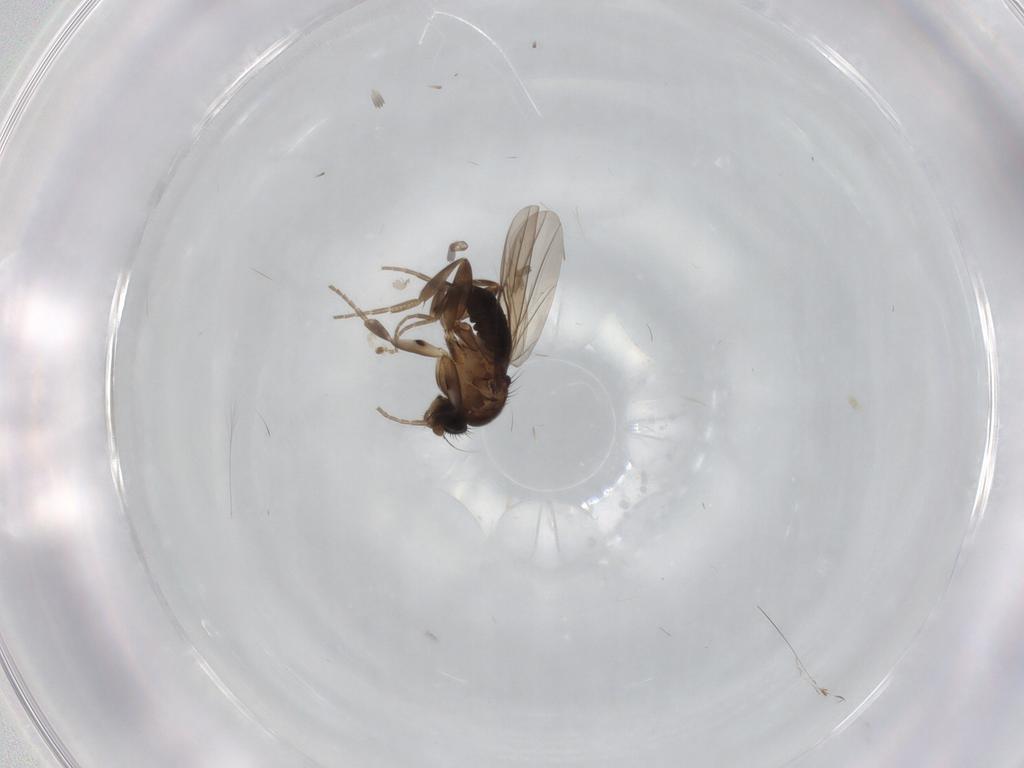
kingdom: Animalia
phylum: Arthropoda
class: Insecta
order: Diptera
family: Phoridae
